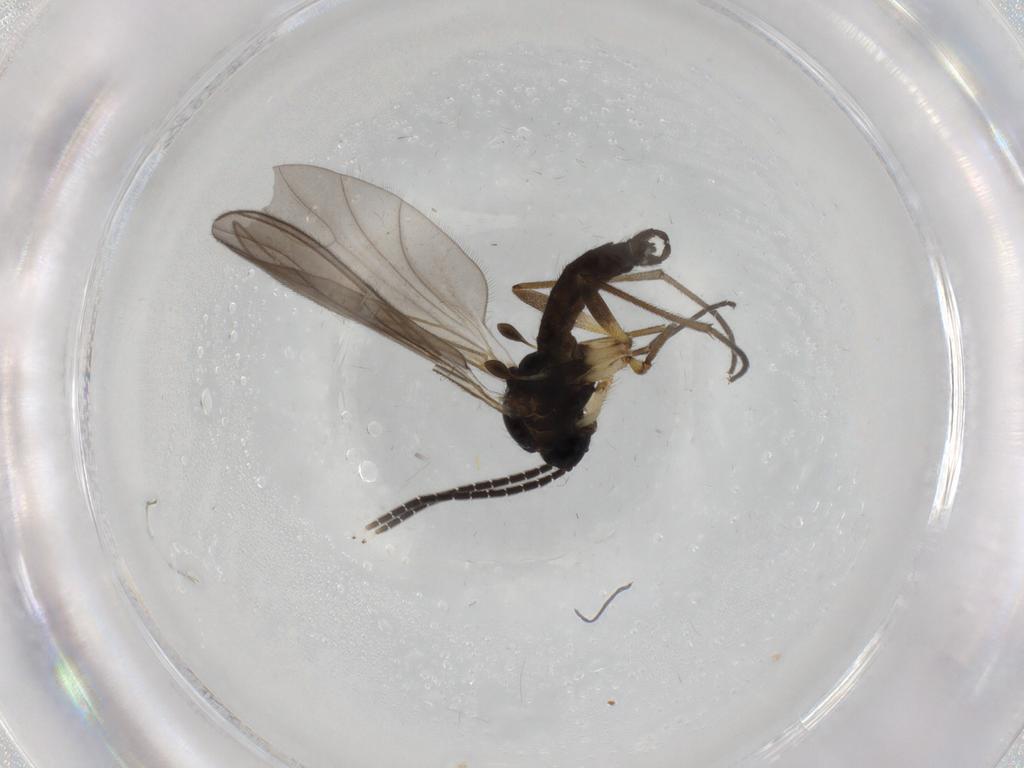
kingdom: Animalia
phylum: Arthropoda
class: Insecta
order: Diptera
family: Sciaridae
